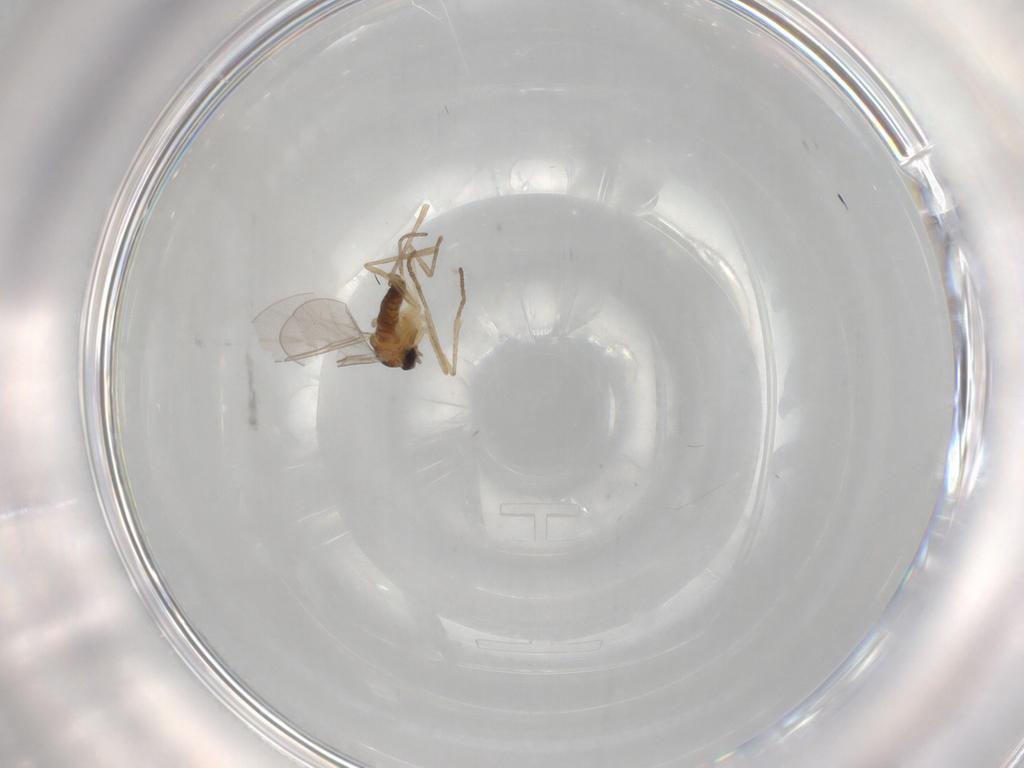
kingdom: Animalia
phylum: Arthropoda
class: Insecta
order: Diptera
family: Cecidomyiidae
